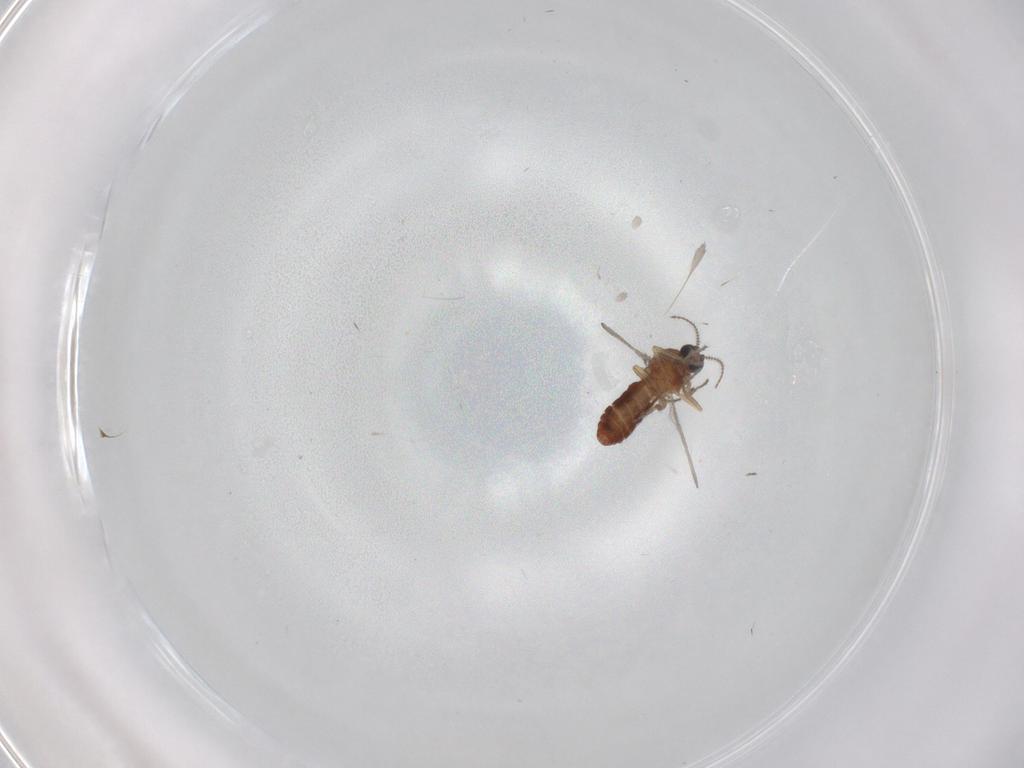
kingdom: Animalia
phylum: Arthropoda
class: Insecta
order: Diptera
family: Ceratopogonidae
